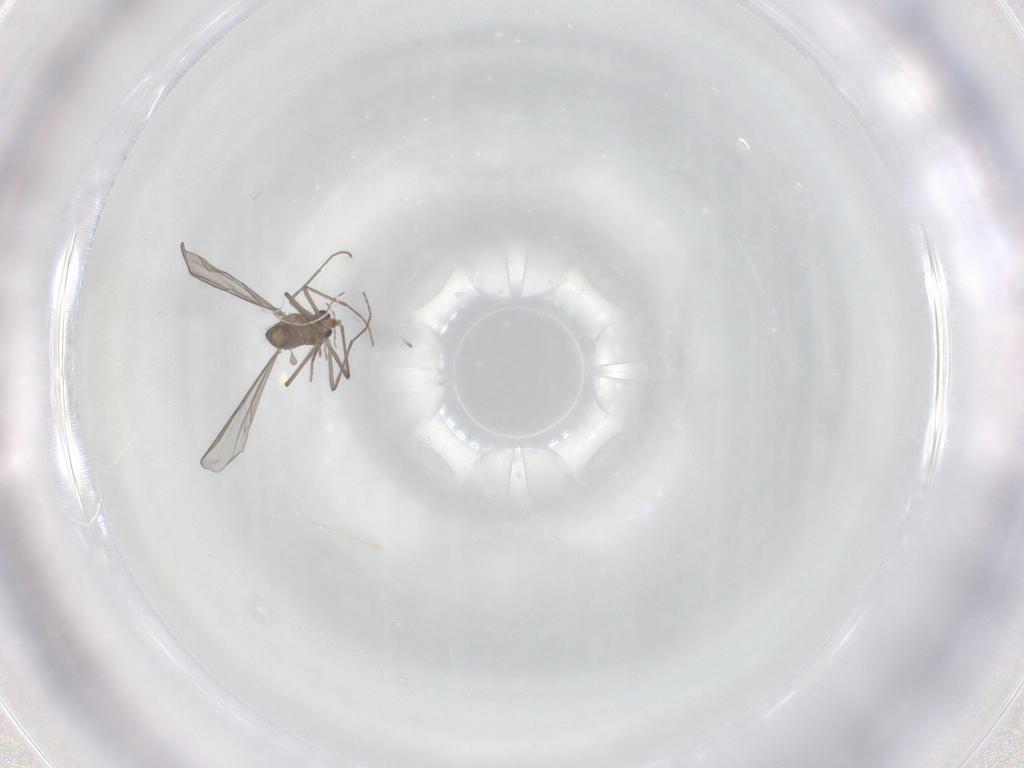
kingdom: Animalia
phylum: Arthropoda
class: Insecta
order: Diptera
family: Chironomidae
